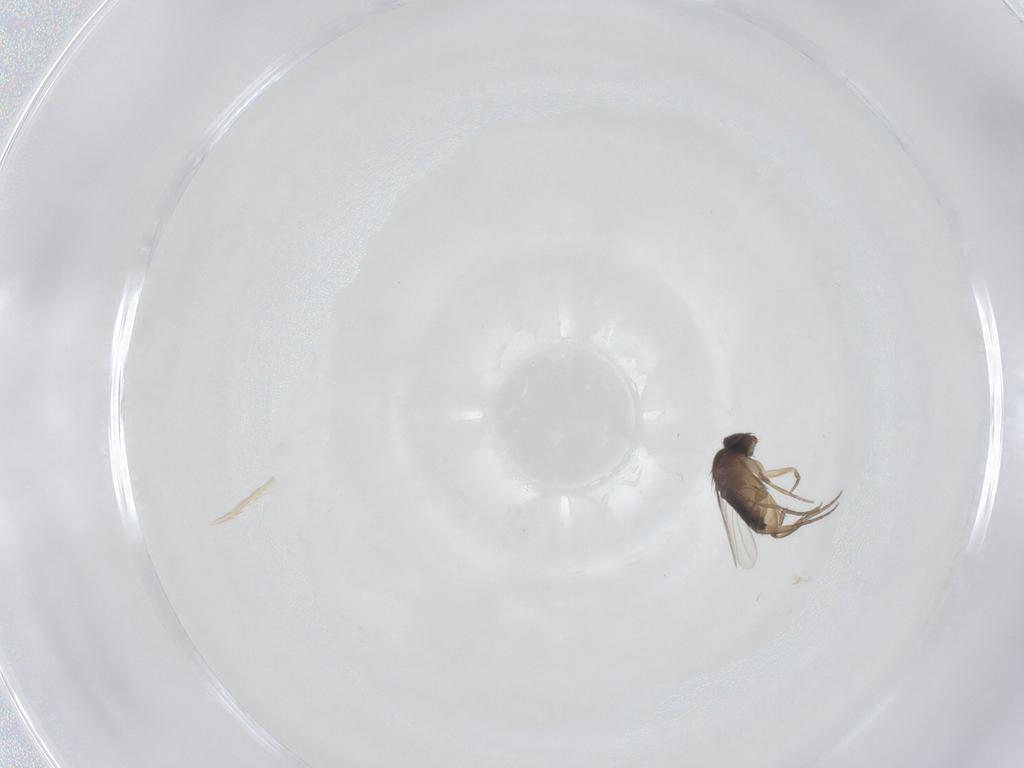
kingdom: Animalia
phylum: Arthropoda
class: Insecta
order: Diptera
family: Phoridae
